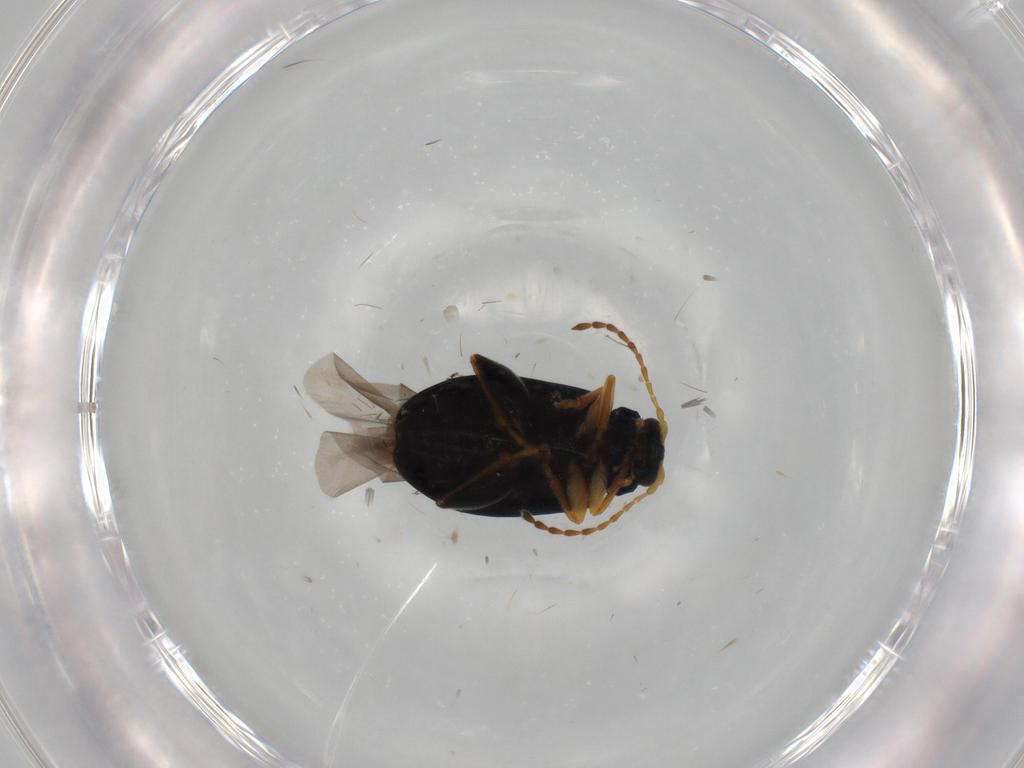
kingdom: Animalia
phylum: Arthropoda
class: Insecta
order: Coleoptera
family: Chrysomelidae
